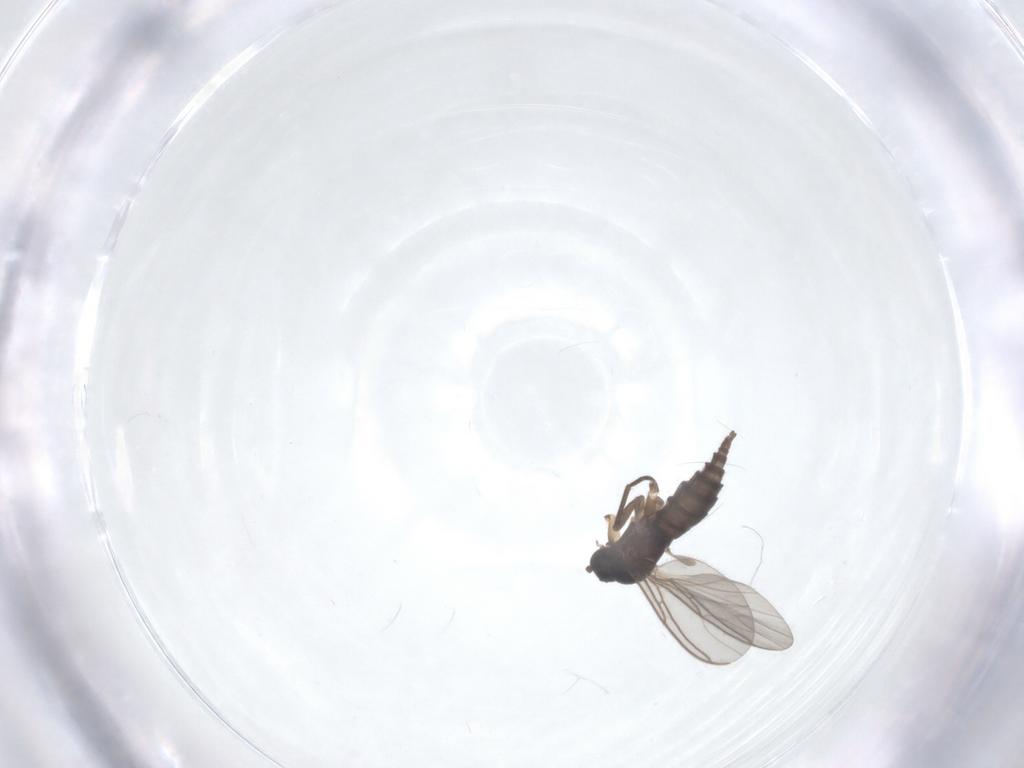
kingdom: Animalia
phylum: Arthropoda
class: Insecta
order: Diptera
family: Sciaridae
